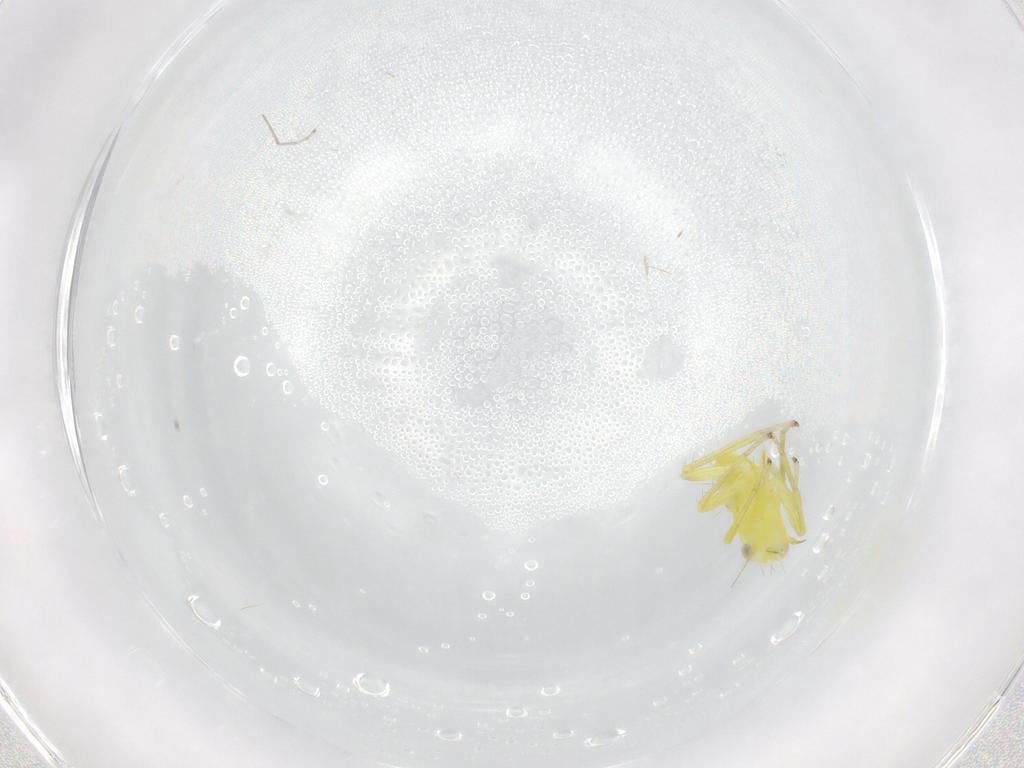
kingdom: Animalia
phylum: Arthropoda
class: Insecta
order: Hemiptera
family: Cicadellidae
